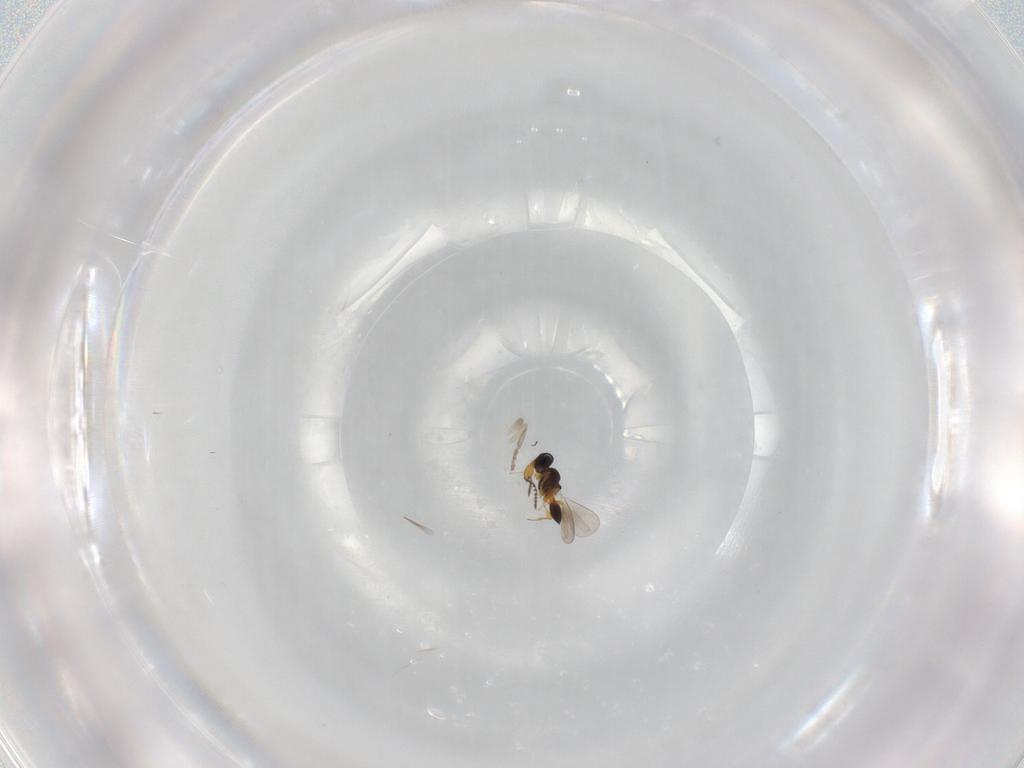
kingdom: Animalia
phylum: Arthropoda
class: Insecta
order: Hymenoptera
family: Diapriidae
